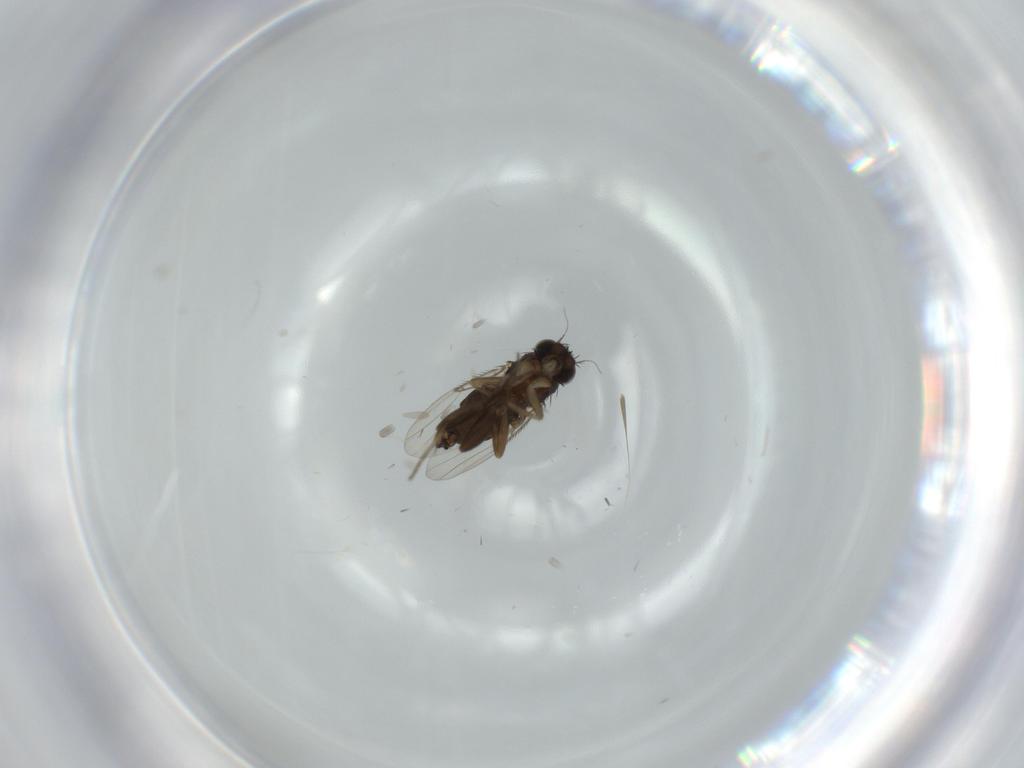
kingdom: Animalia
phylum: Arthropoda
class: Insecta
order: Diptera
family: Phoridae
